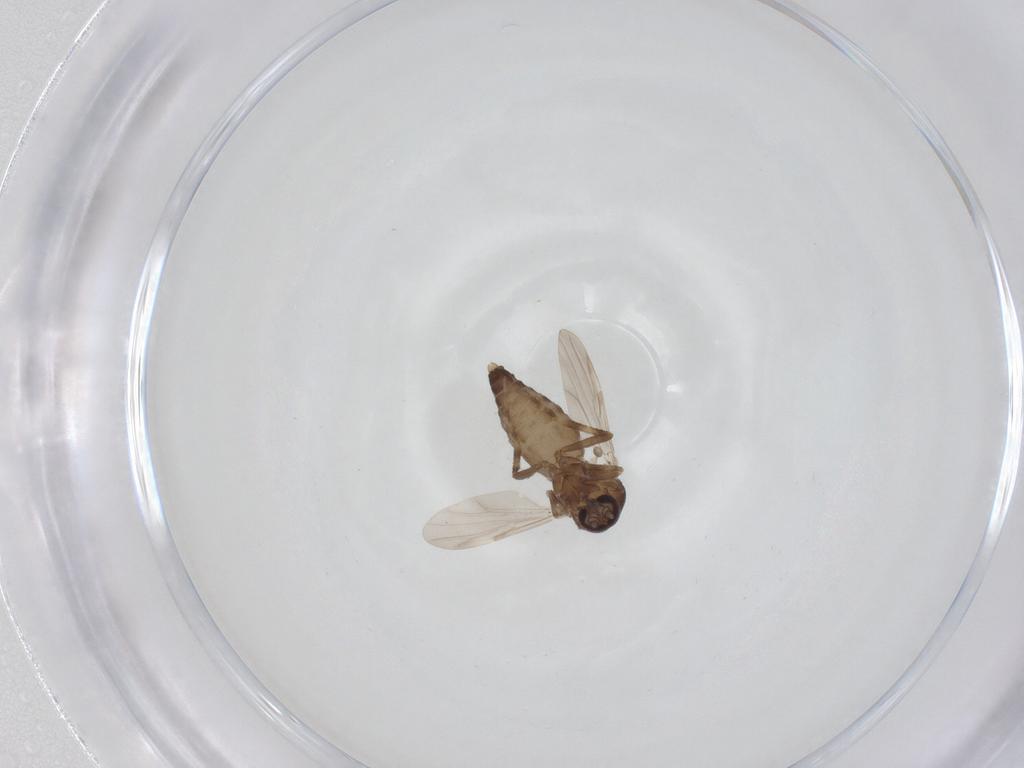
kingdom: Animalia
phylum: Arthropoda
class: Insecta
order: Diptera
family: Ceratopogonidae
